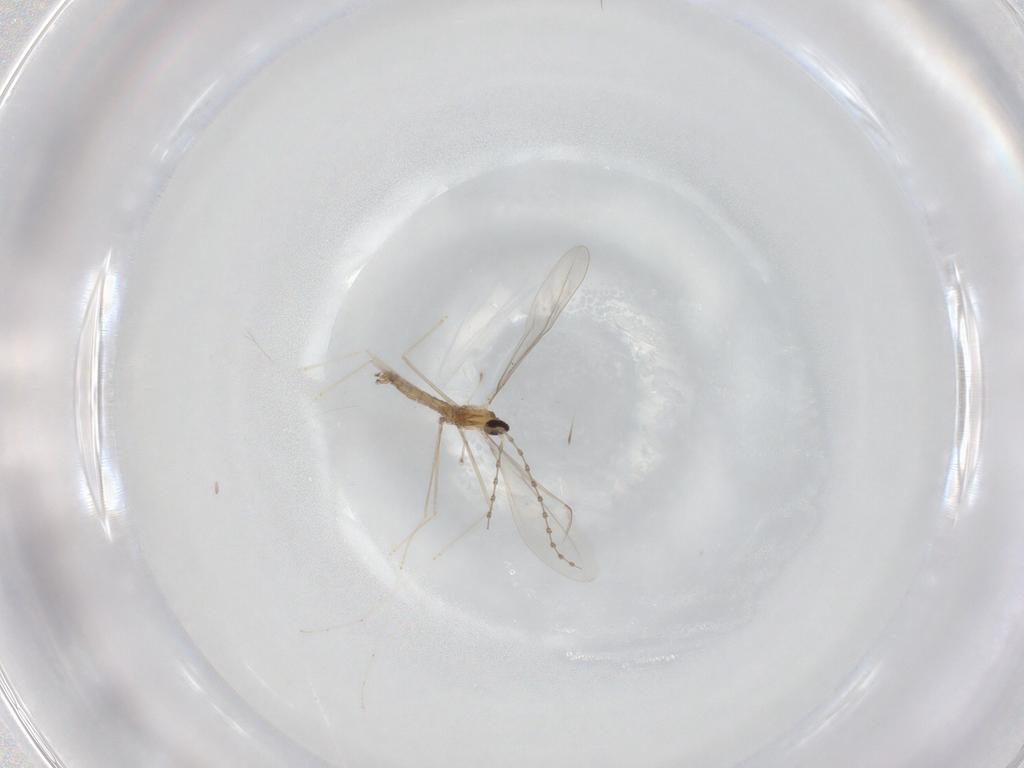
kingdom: Animalia
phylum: Arthropoda
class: Insecta
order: Diptera
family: Cecidomyiidae
